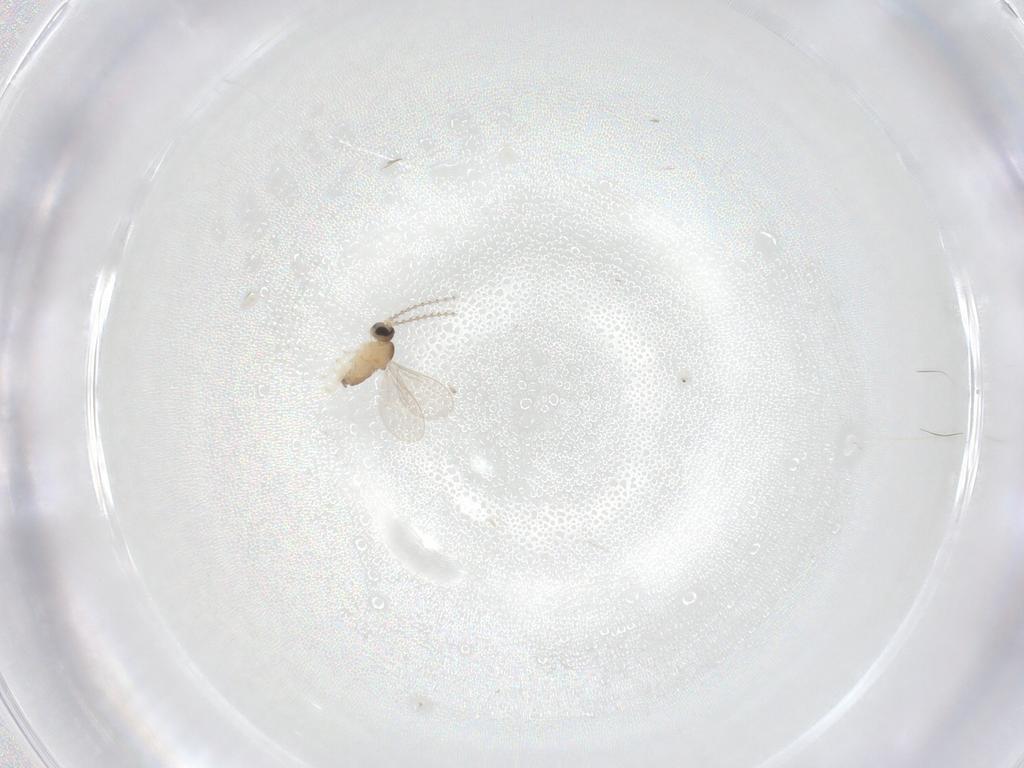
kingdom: Animalia
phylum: Arthropoda
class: Insecta
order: Diptera
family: Cecidomyiidae
